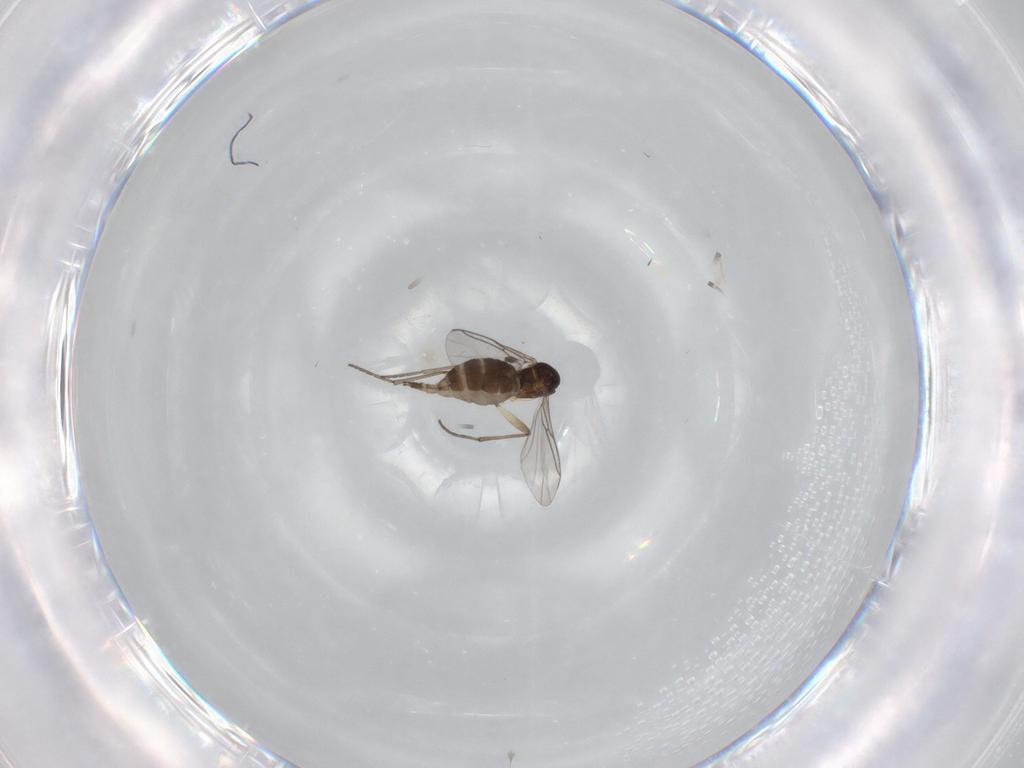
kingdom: Animalia
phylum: Arthropoda
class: Insecta
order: Diptera
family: Sciaridae
